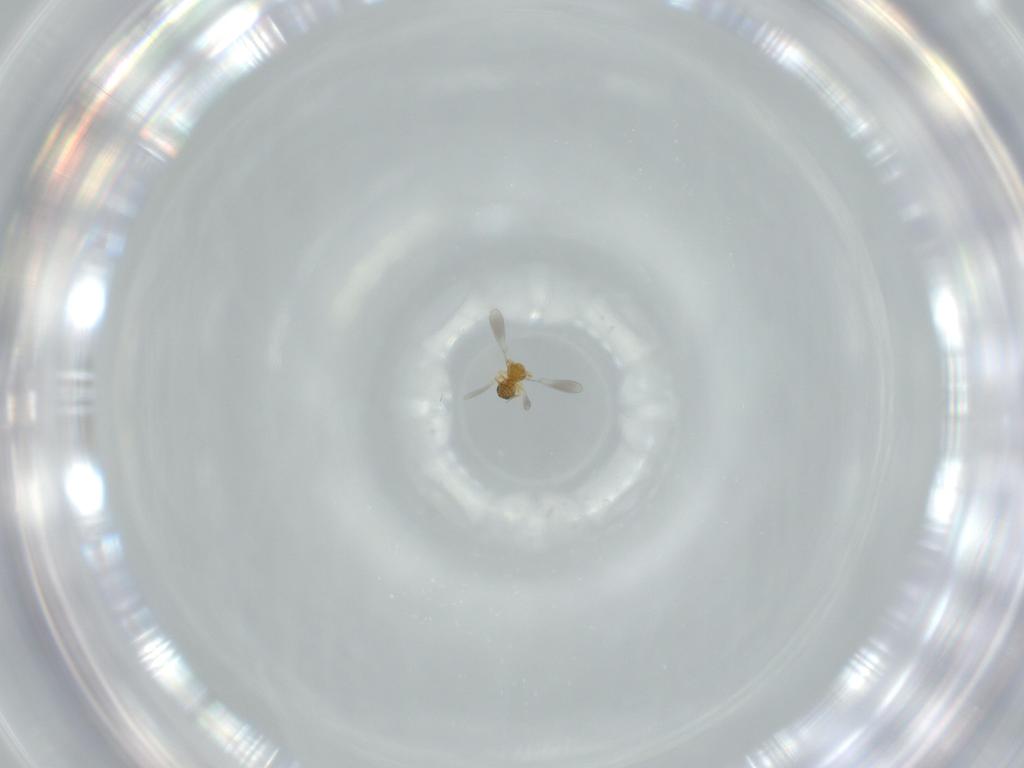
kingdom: Animalia
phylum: Arthropoda
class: Insecta
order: Hymenoptera
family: Platygastridae
